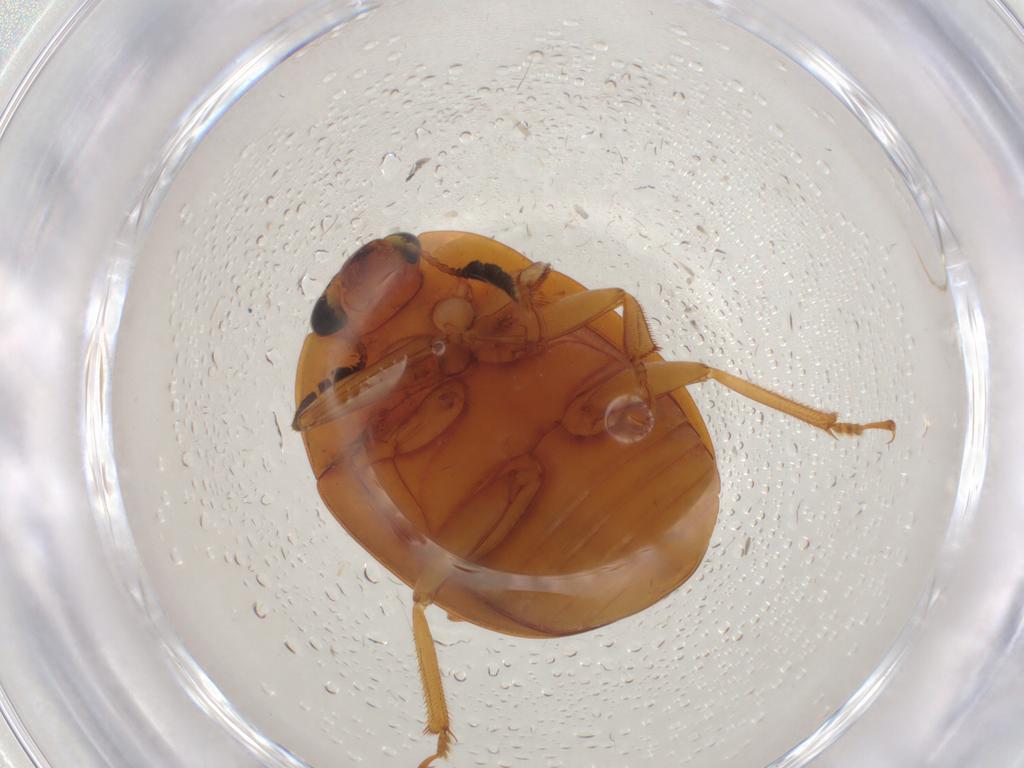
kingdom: Animalia
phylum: Arthropoda
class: Insecta
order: Coleoptera
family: Nitidulidae
